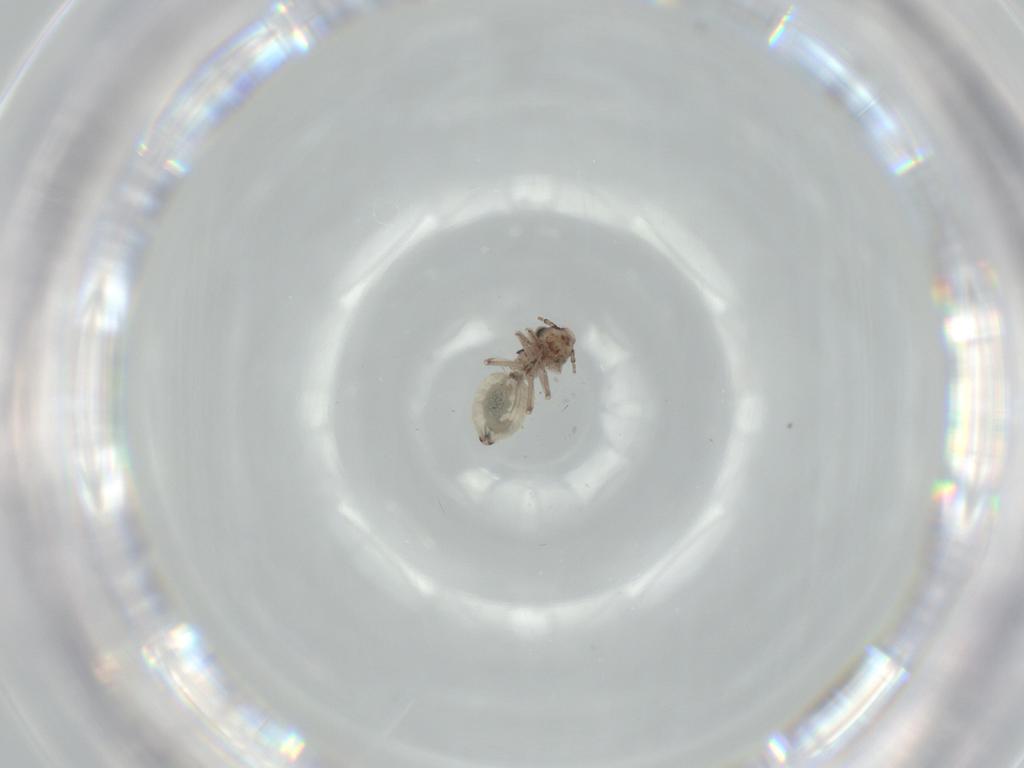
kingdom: Animalia
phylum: Arthropoda
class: Insecta
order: Psocodea
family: Lepidopsocidae
